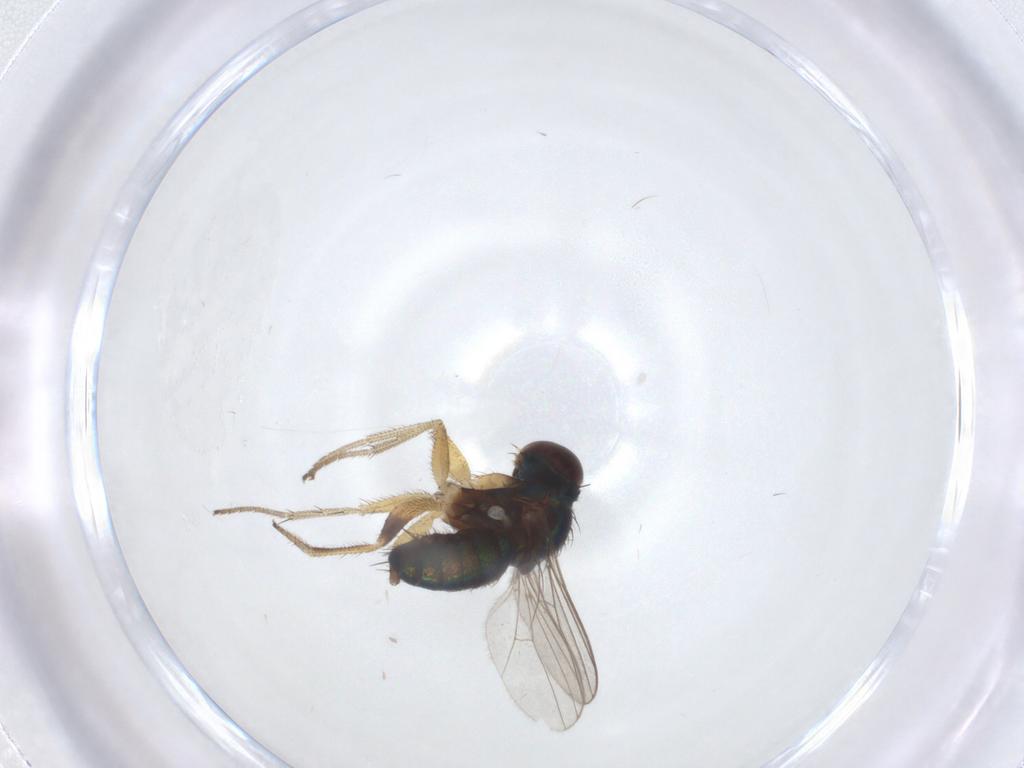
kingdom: Animalia
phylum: Arthropoda
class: Insecta
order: Diptera
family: Dolichopodidae
